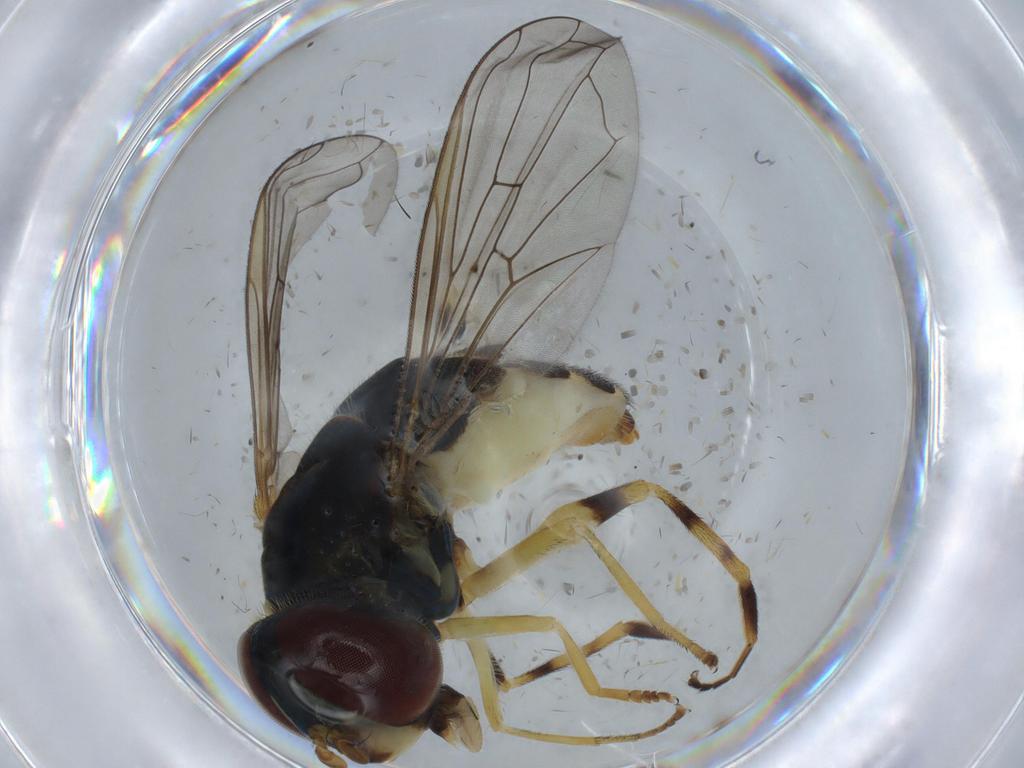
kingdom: Animalia
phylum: Arthropoda
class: Insecta
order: Diptera
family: Syrphidae
